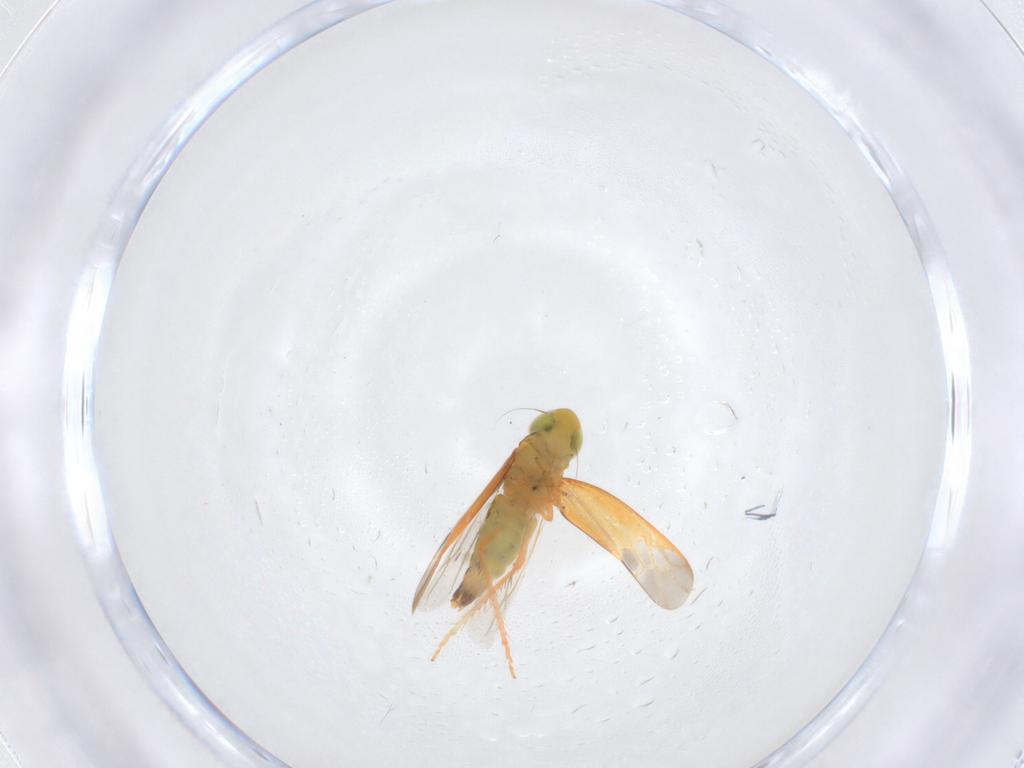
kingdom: Animalia
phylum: Arthropoda
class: Insecta
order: Hemiptera
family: Cicadellidae
